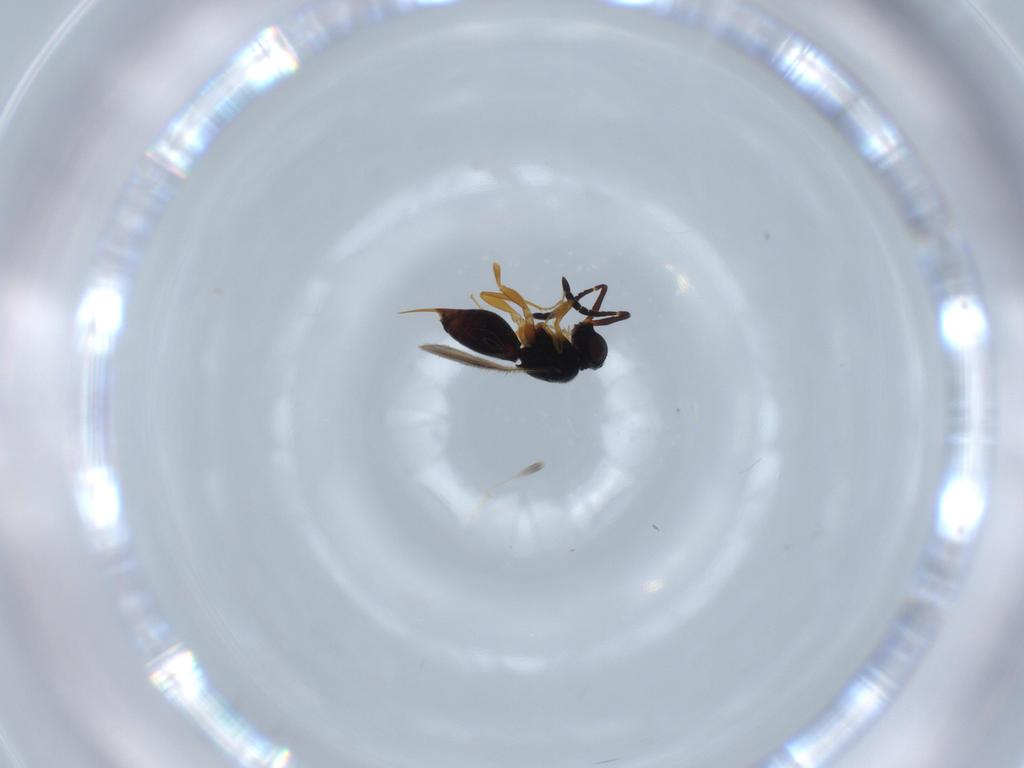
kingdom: Animalia
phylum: Arthropoda
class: Insecta
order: Hymenoptera
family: Ceraphronidae
